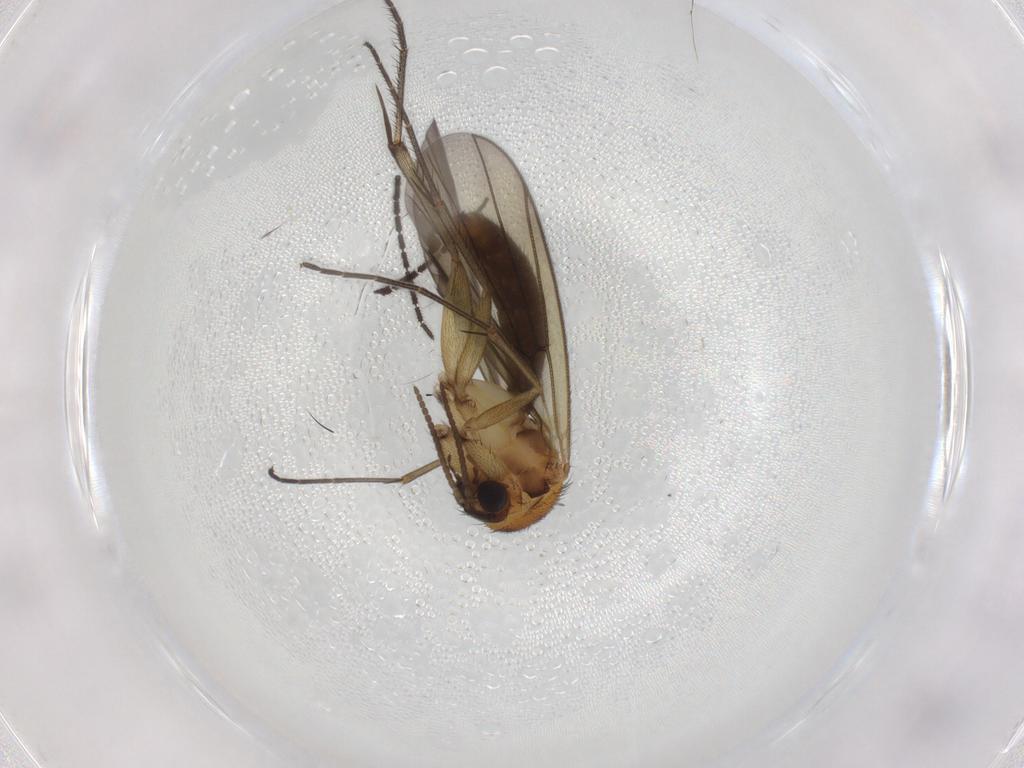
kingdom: Animalia
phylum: Arthropoda
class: Insecta
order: Diptera
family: Mycetophilidae
